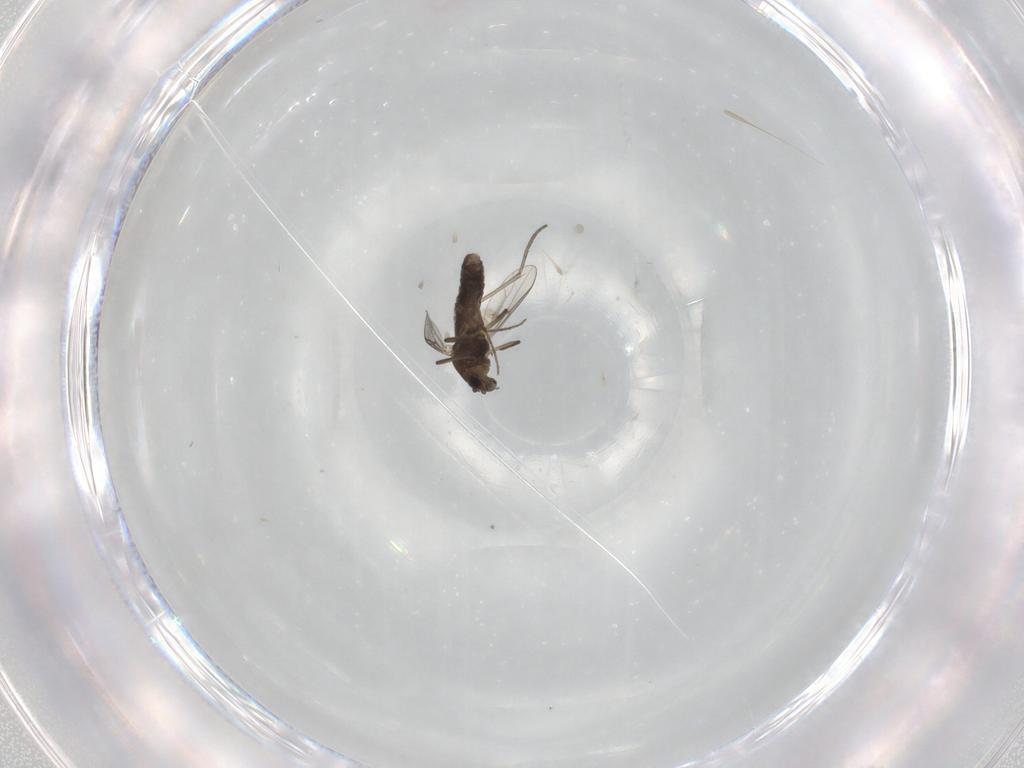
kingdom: Animalia
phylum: Arthropoda
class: Insecta
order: Diptera
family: Chironomidae
